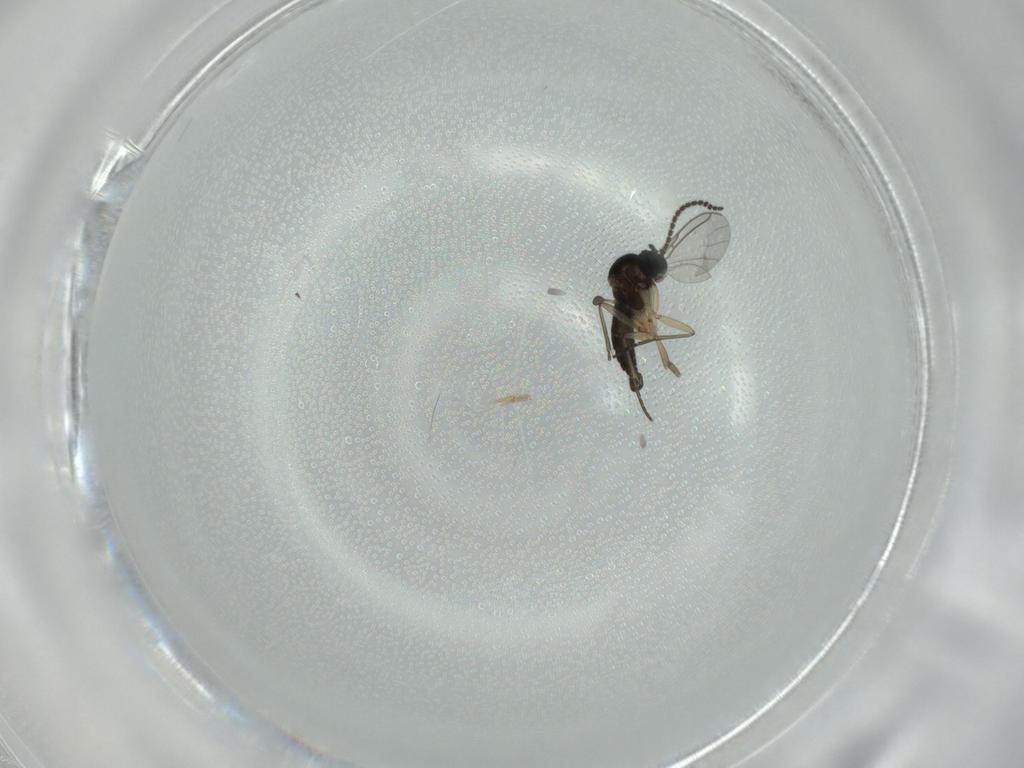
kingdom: Animalia
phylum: Arthropoda
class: Insecta
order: Diptera
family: Sciaridae
